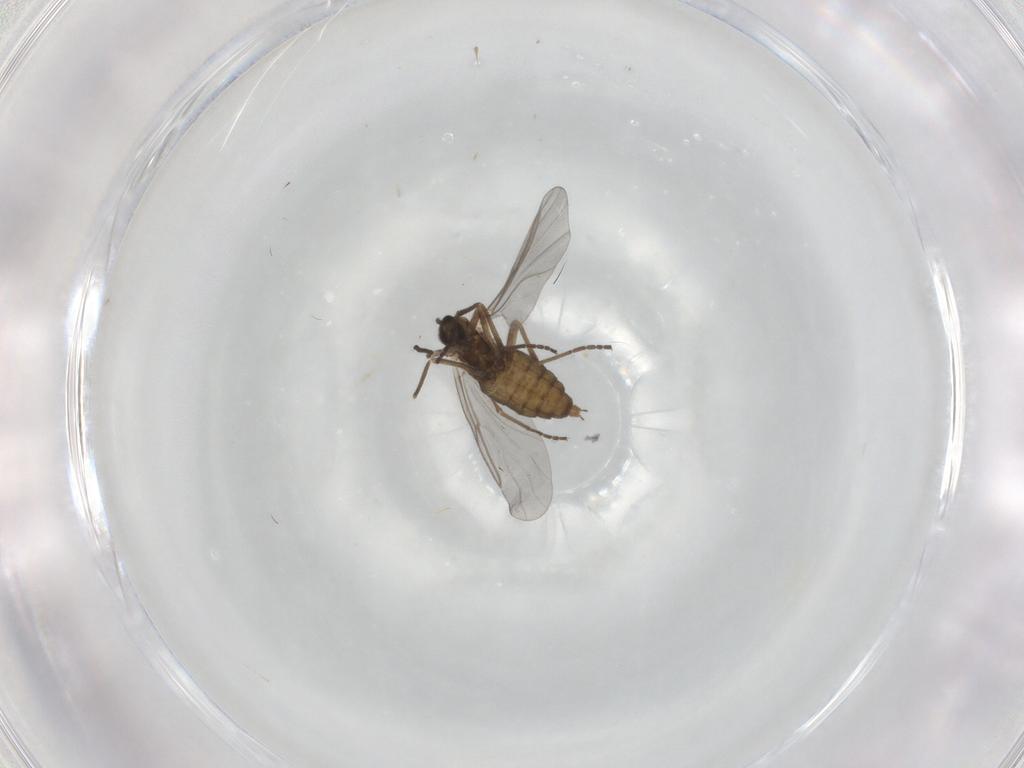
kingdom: Animalia
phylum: Arthropoda
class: Insecta
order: Diptera
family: Cecidomyiidae
